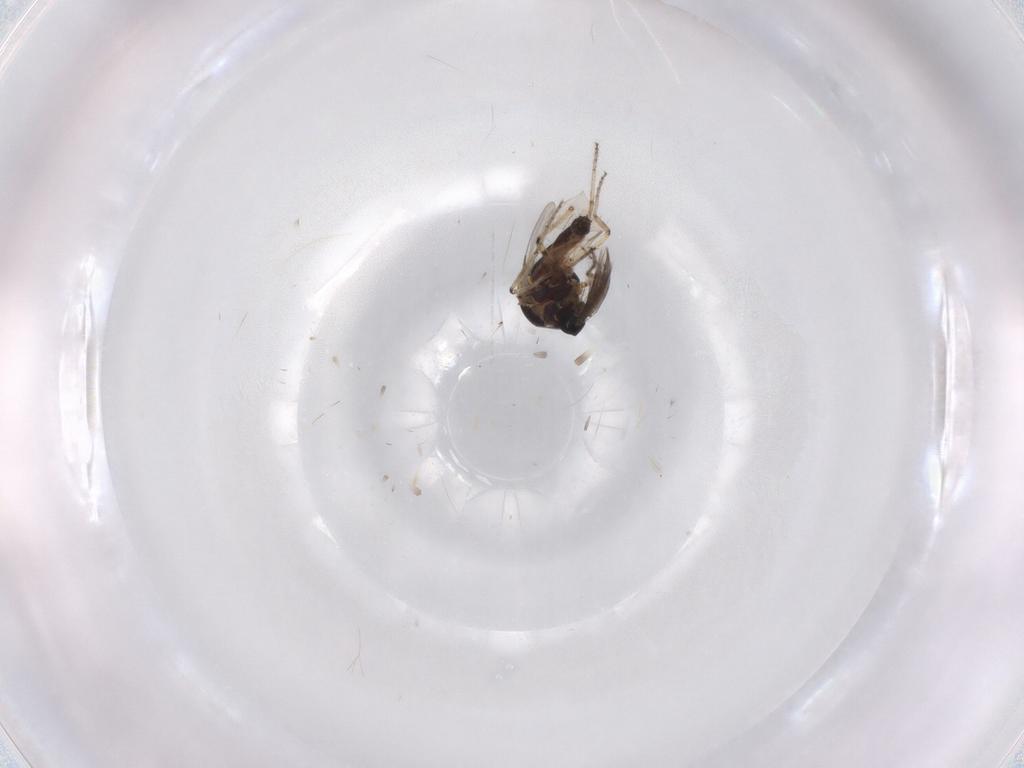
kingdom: Animalia
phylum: Arthropoda
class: Insecta
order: Diptera
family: Ceratopogonidae
